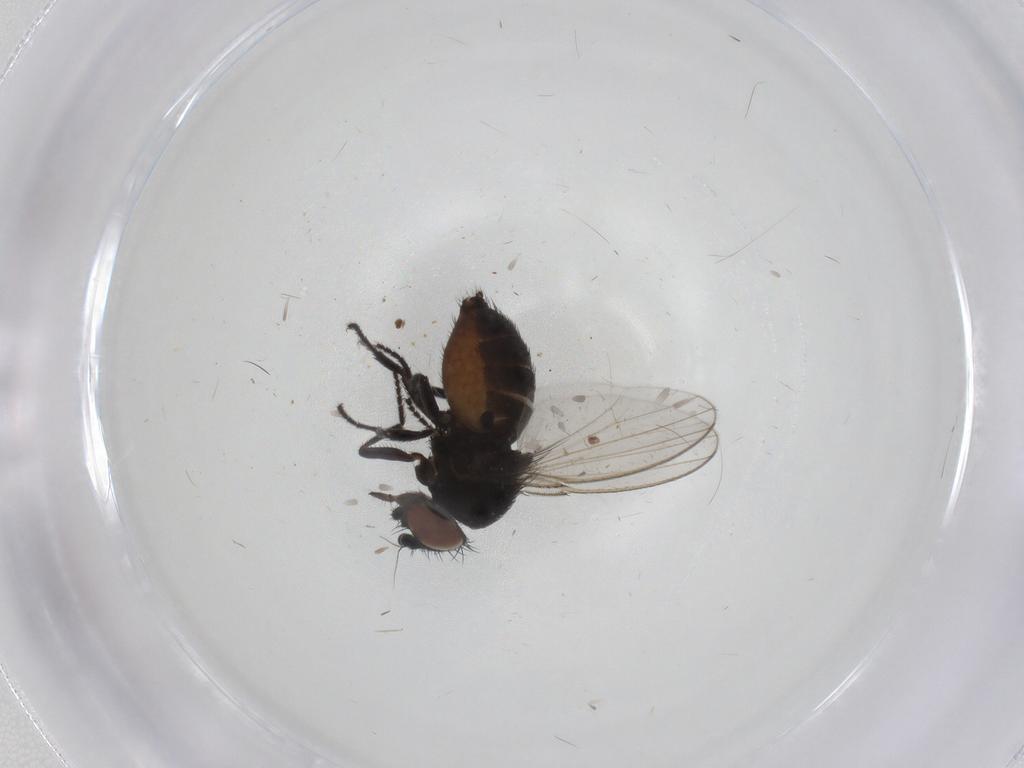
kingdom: Animalia
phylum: Arthropoda
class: Insecta
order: Diptera
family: Milichiidae
